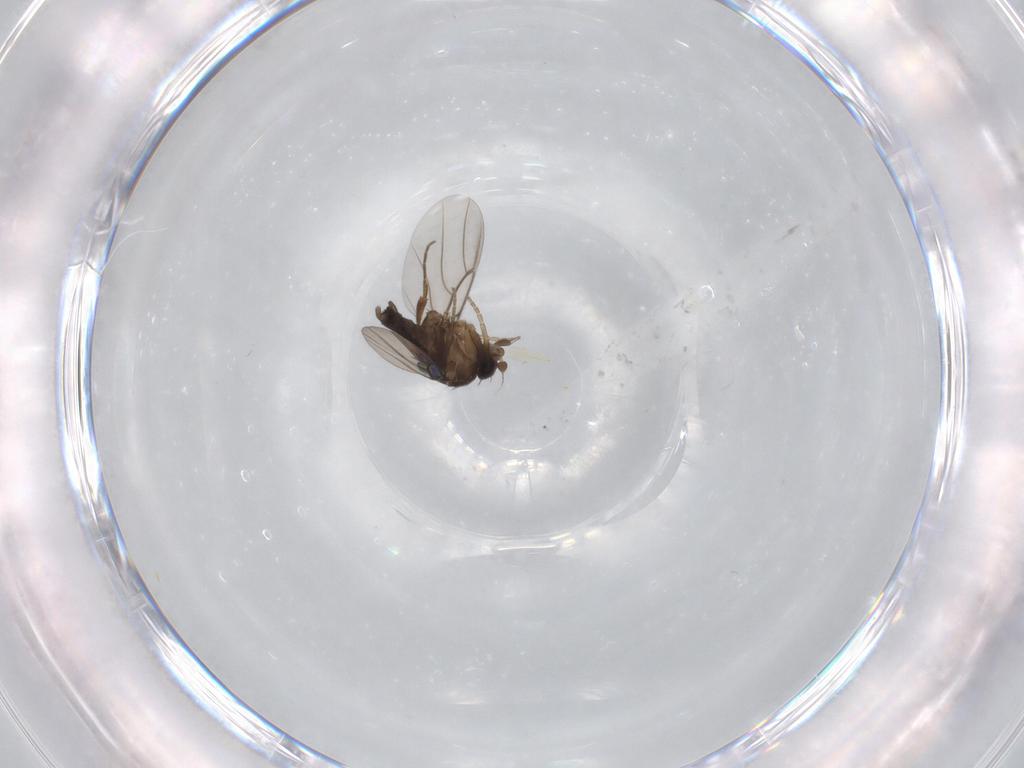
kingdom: Animalia
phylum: Arthropoda
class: Insecta
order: Diptera
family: Phoridae
